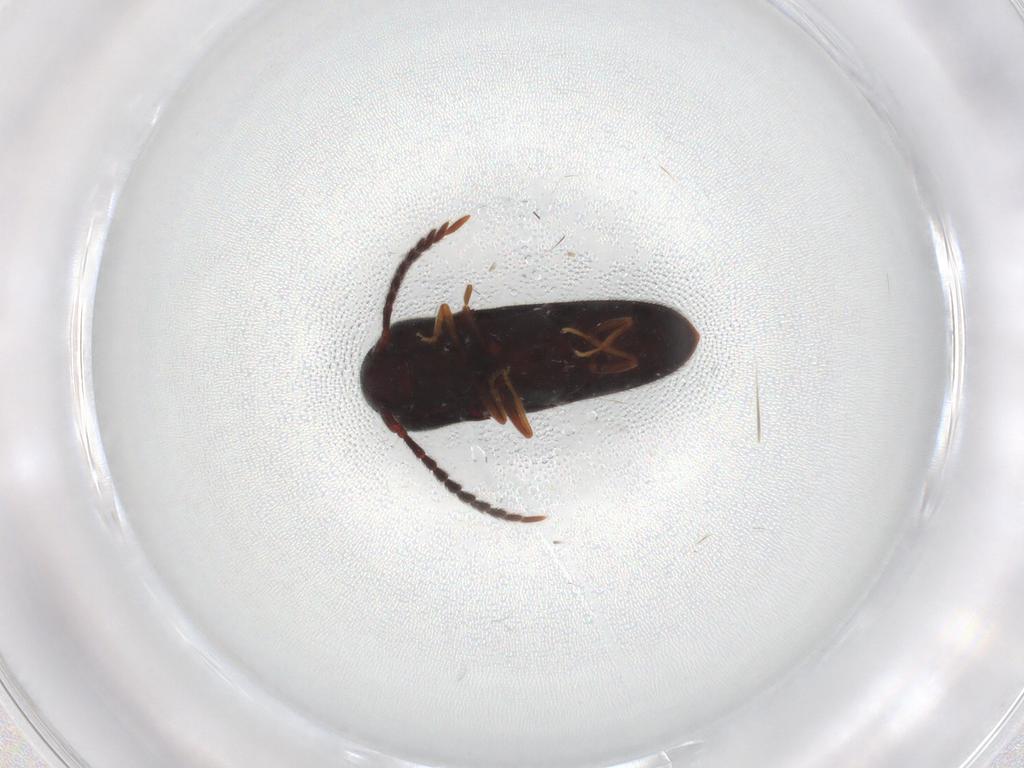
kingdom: Animalia
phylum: Arthropoda
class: Insecta
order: Coleoptera
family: Eucnemidae
